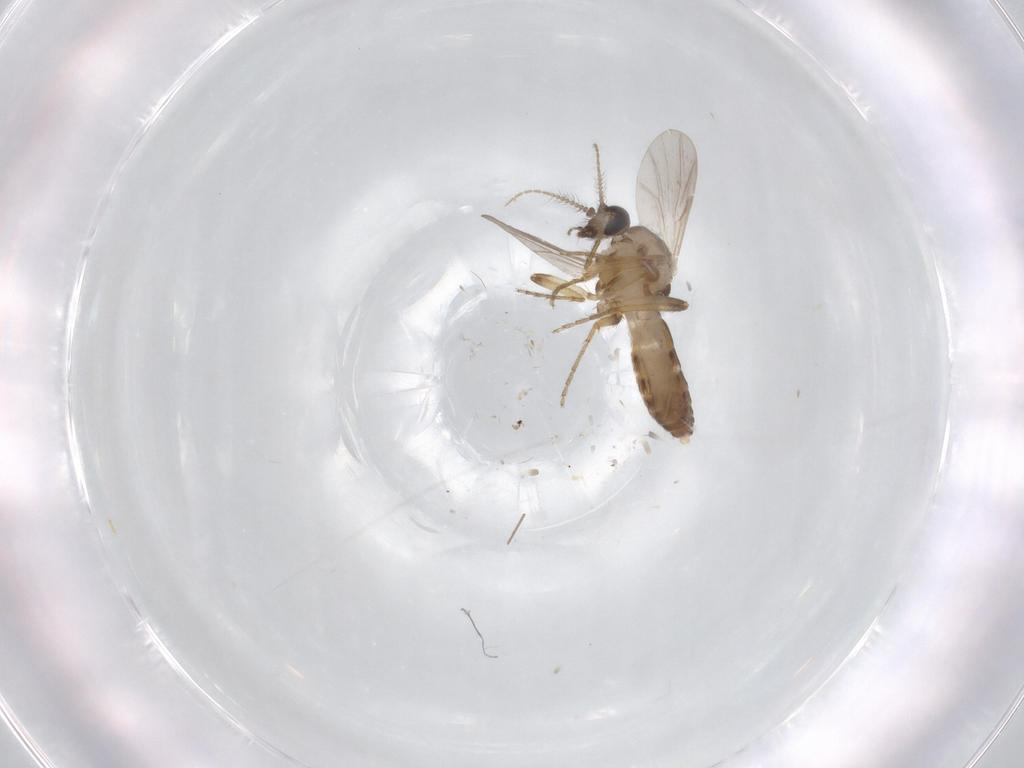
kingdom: Animalia
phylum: Arthropoda
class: Insecta
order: Diptera
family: Ceratopogonidae
